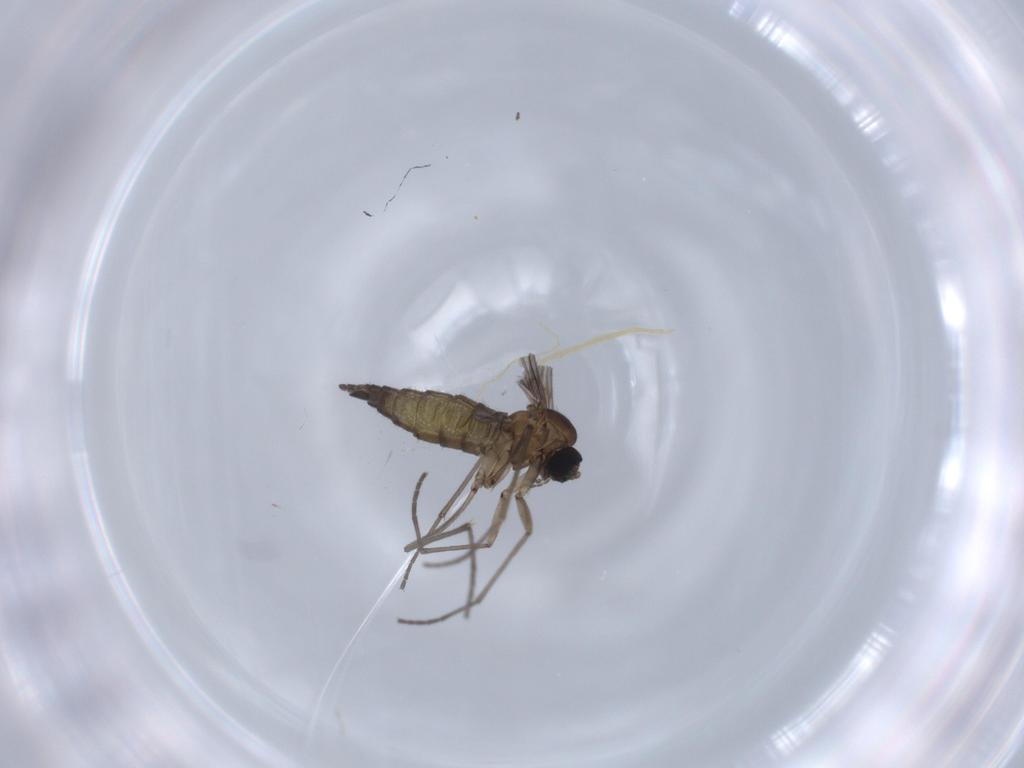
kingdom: Animalia
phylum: Arthropoda
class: Insecta
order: Diptera
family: Sciaridae
